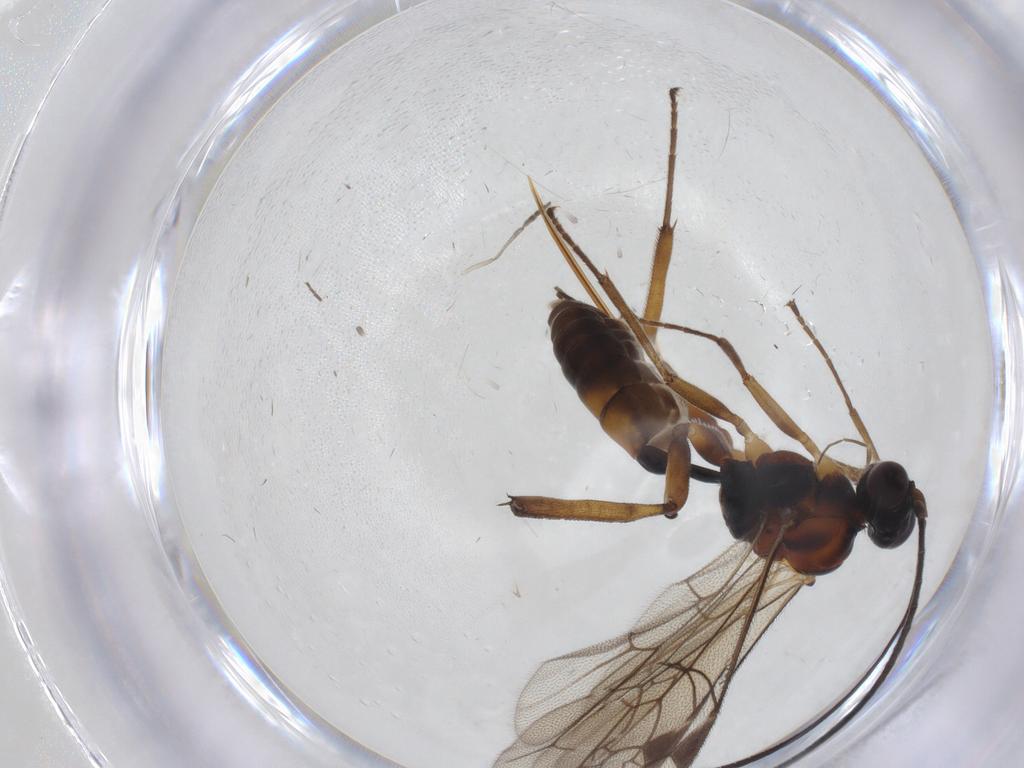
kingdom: Animalia
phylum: Arthropoda
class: Insecta
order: Hymenoptera
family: Ichneumonidae
